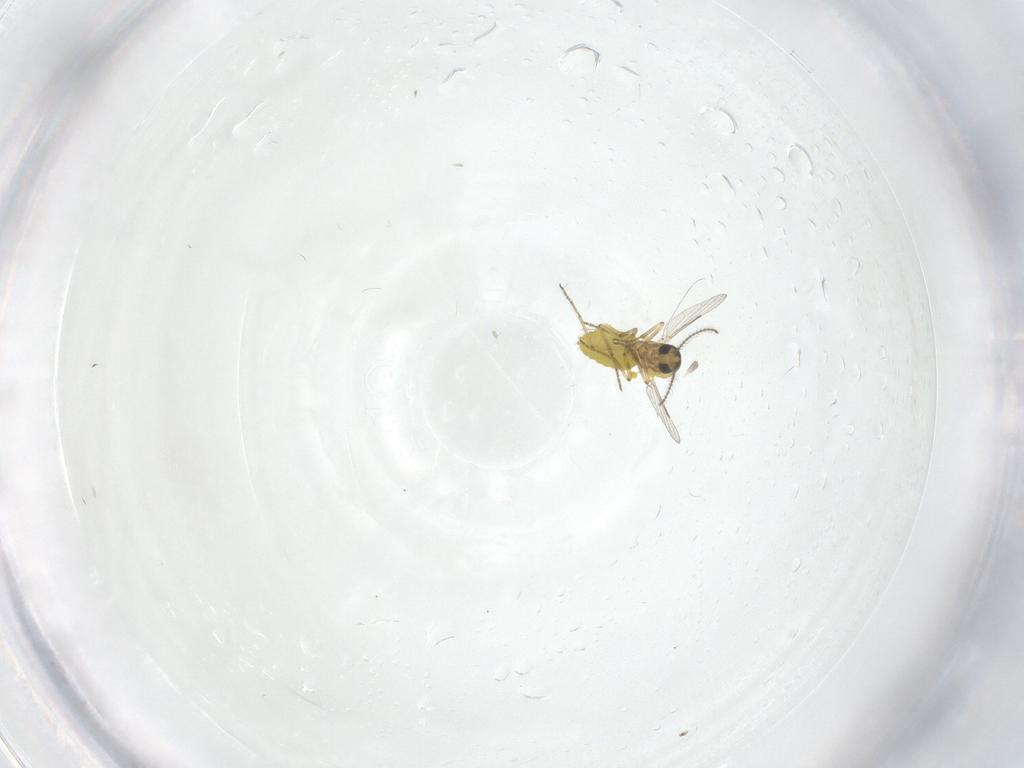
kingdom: Animalia
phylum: Arthropoda
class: Insecta
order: Diptera
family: Ceratopogonidae
